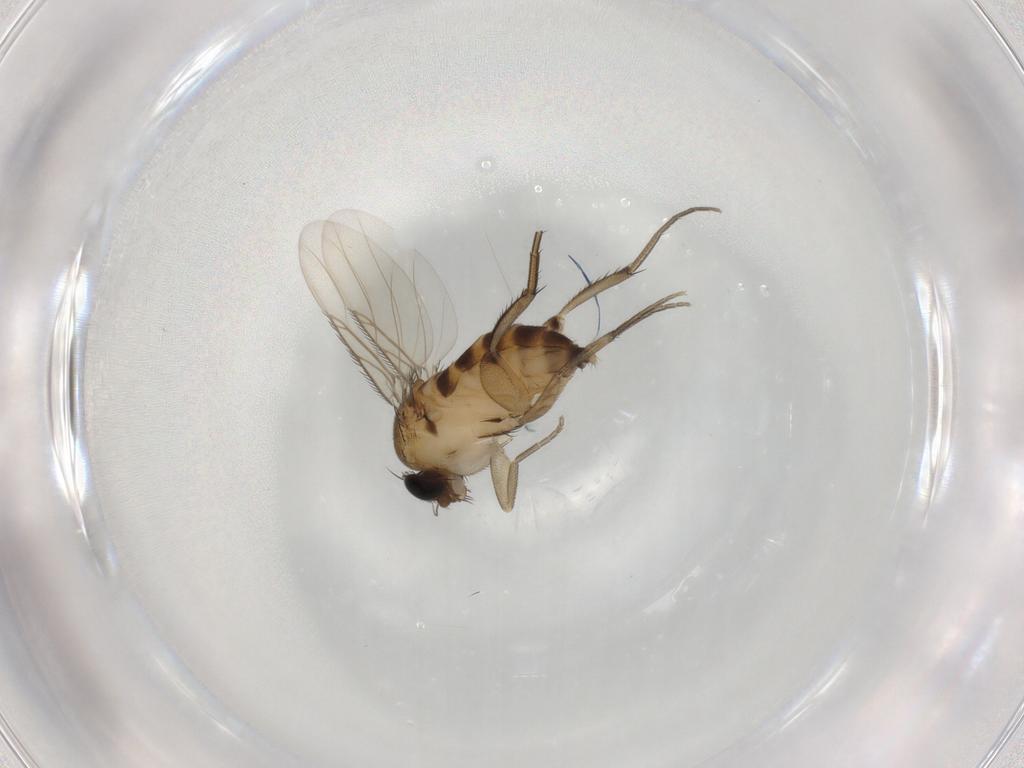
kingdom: Animalia
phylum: Arthropoda
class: Insecta
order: Diptera
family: Phoridae
